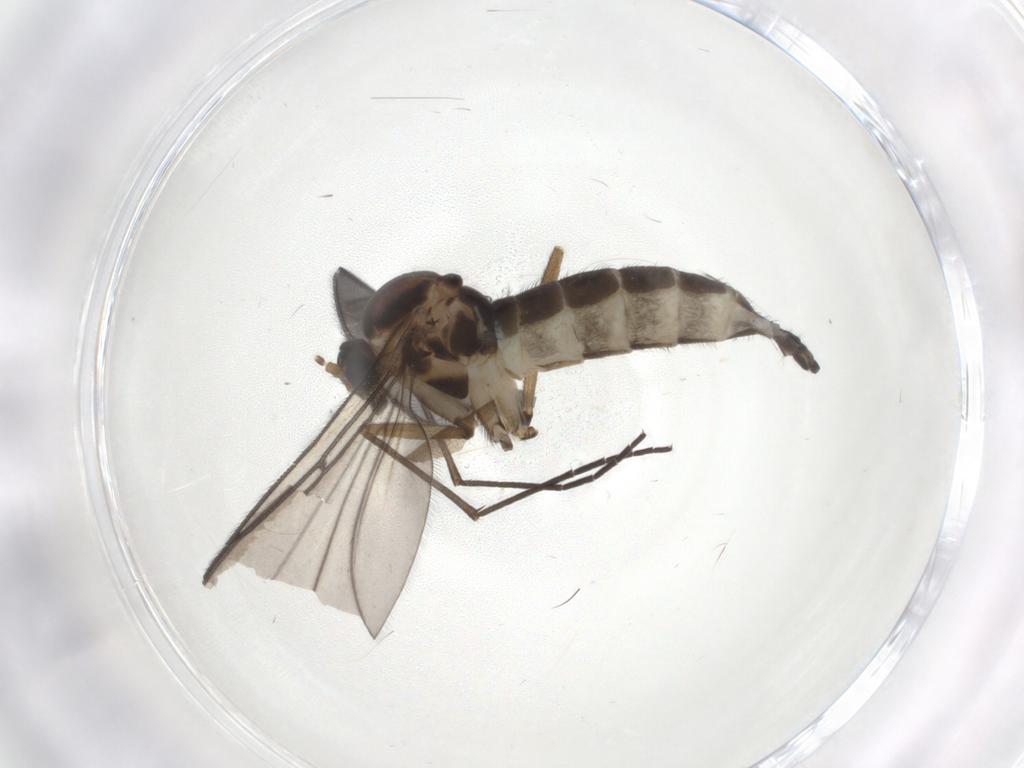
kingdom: Animalia
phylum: Arthropoda
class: Insecta
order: Diptera
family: Sciaridae
